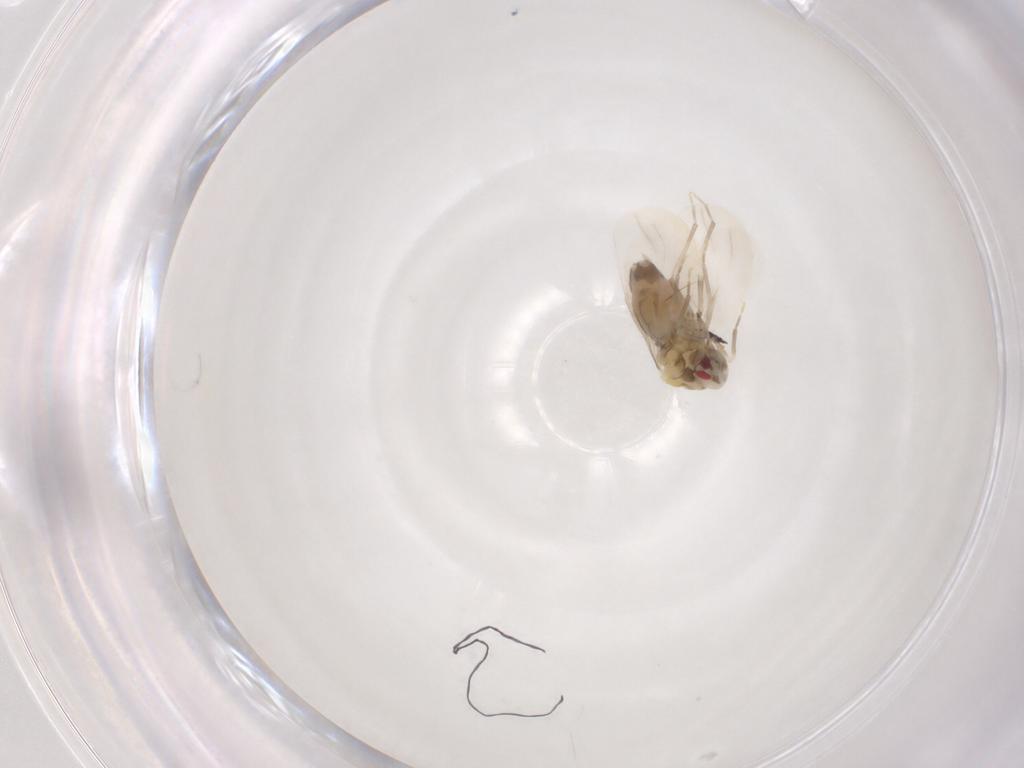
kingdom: Animalia
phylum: Arthropoda
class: Insecta
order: Hemiptera
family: Aleyrodidae
